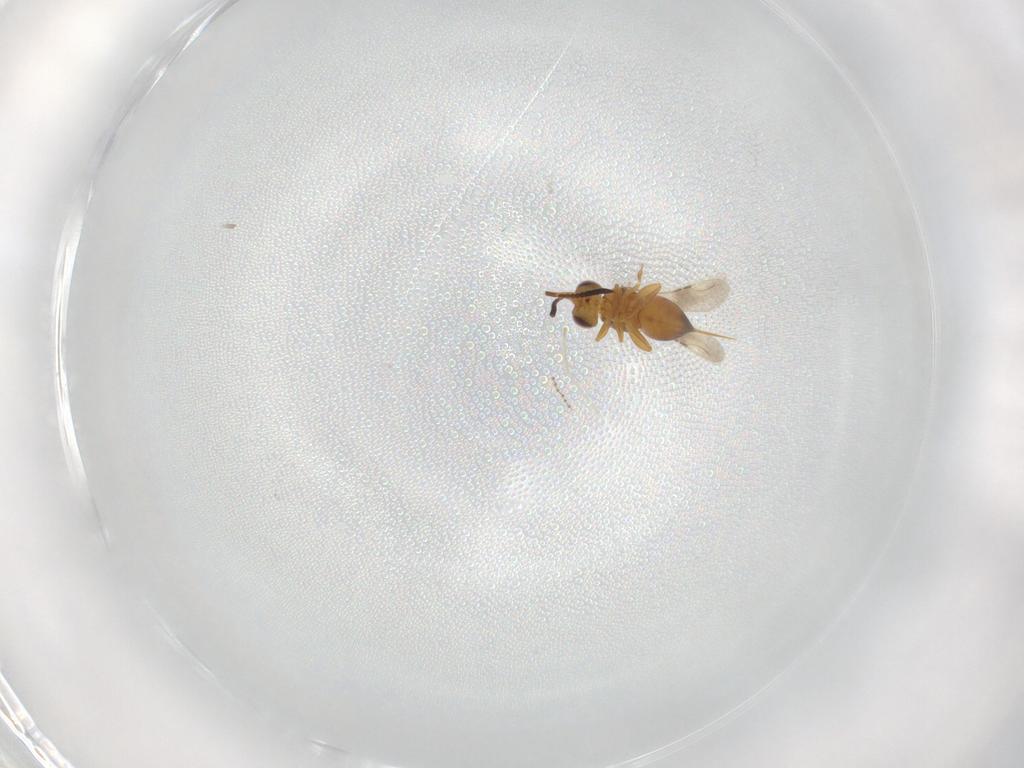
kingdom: Animalia
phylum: Arthropoda
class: Insecta
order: Hymenoptera
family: Ceraphronidae
